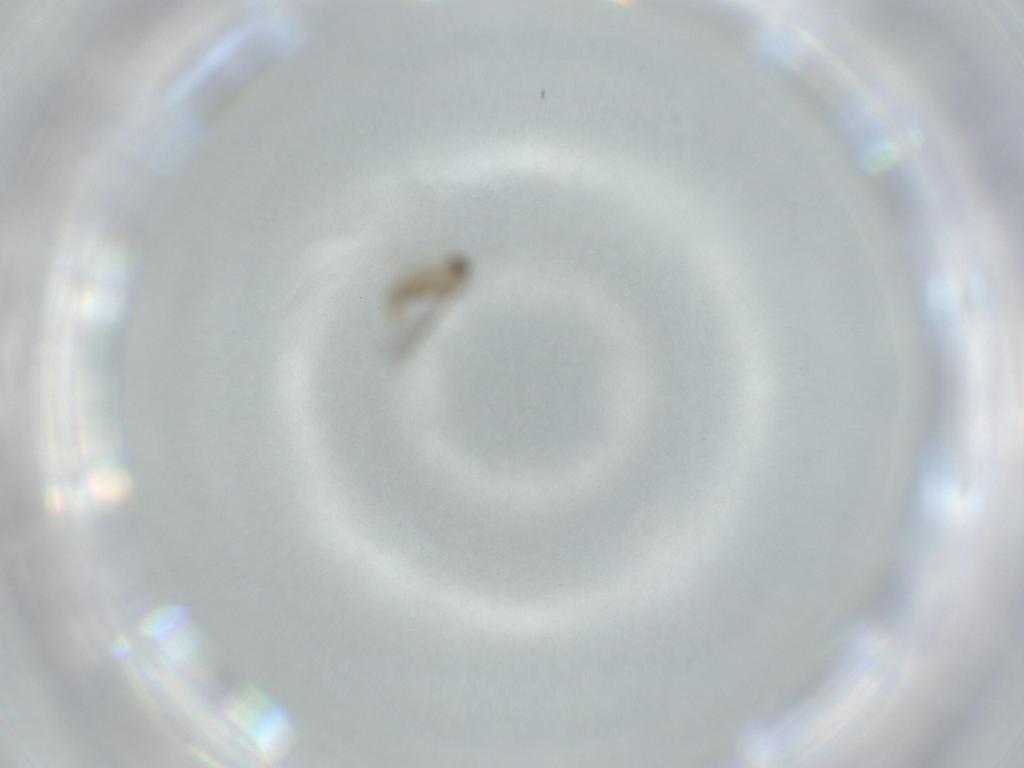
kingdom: Animalia
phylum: Arthropoda
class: Insecta
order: Diptera
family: Cecidomyiidae
